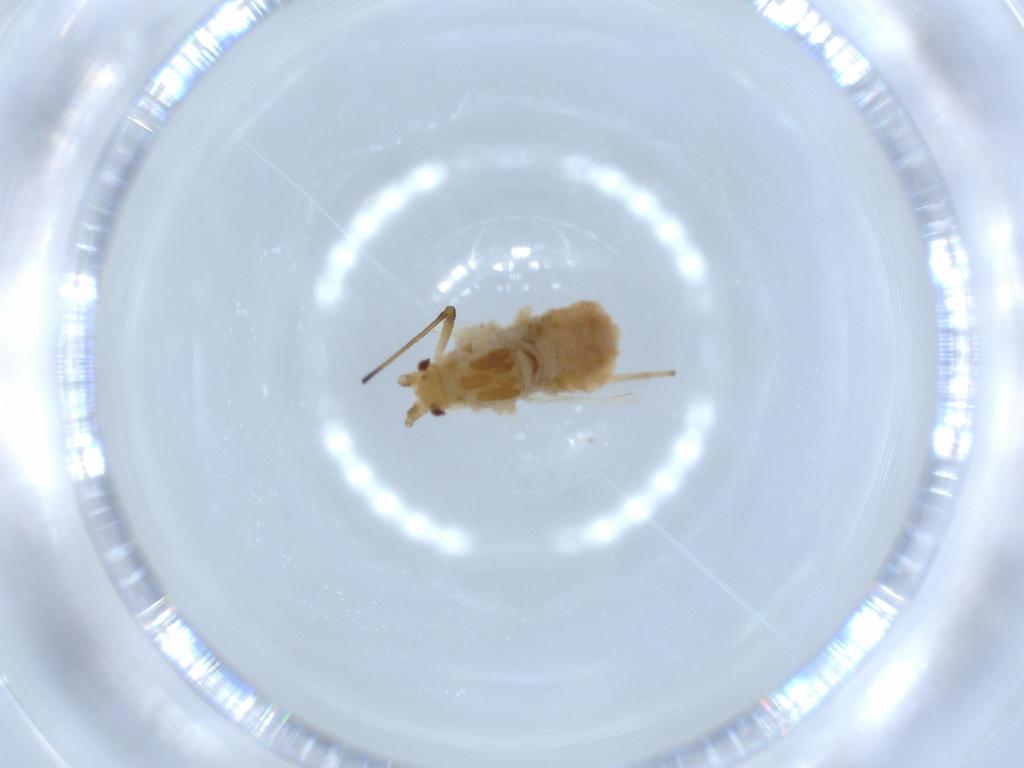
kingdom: Animalia
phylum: Arthropoda
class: Insecta
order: Hemiptera
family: Aphididae
